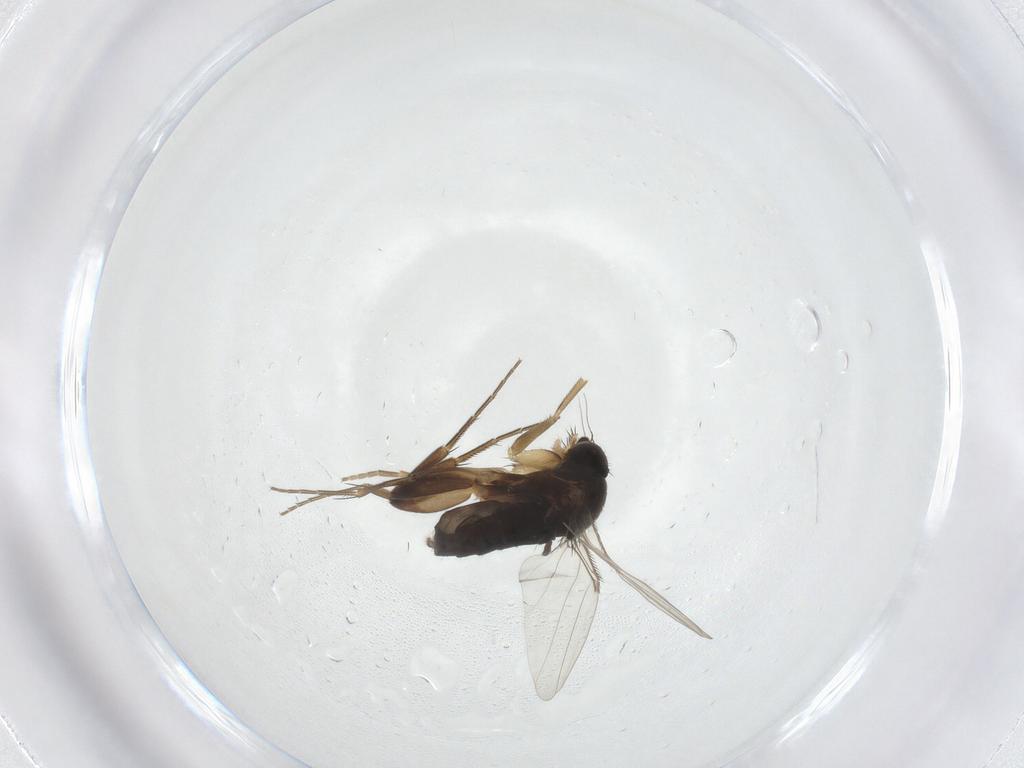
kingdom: Animalia
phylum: Arthropoda
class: Insecta
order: Diptera
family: Phoridae
